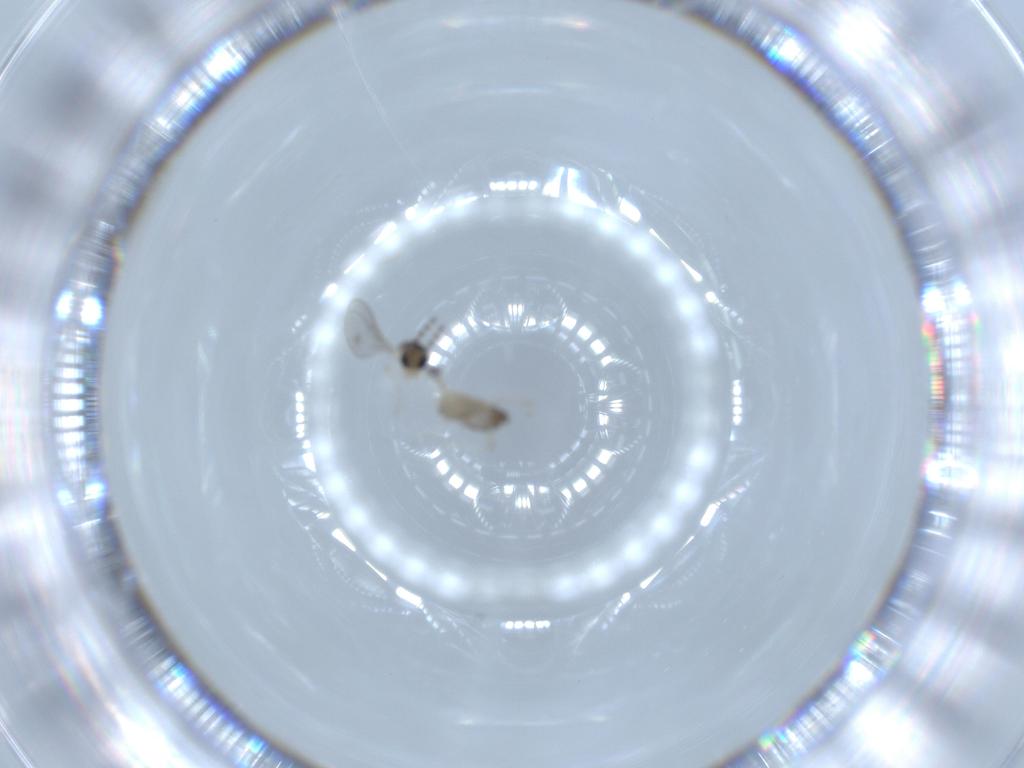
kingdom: Animalia
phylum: Arthropoda
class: Insecta
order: Diptera
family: Cecidomyiidae
